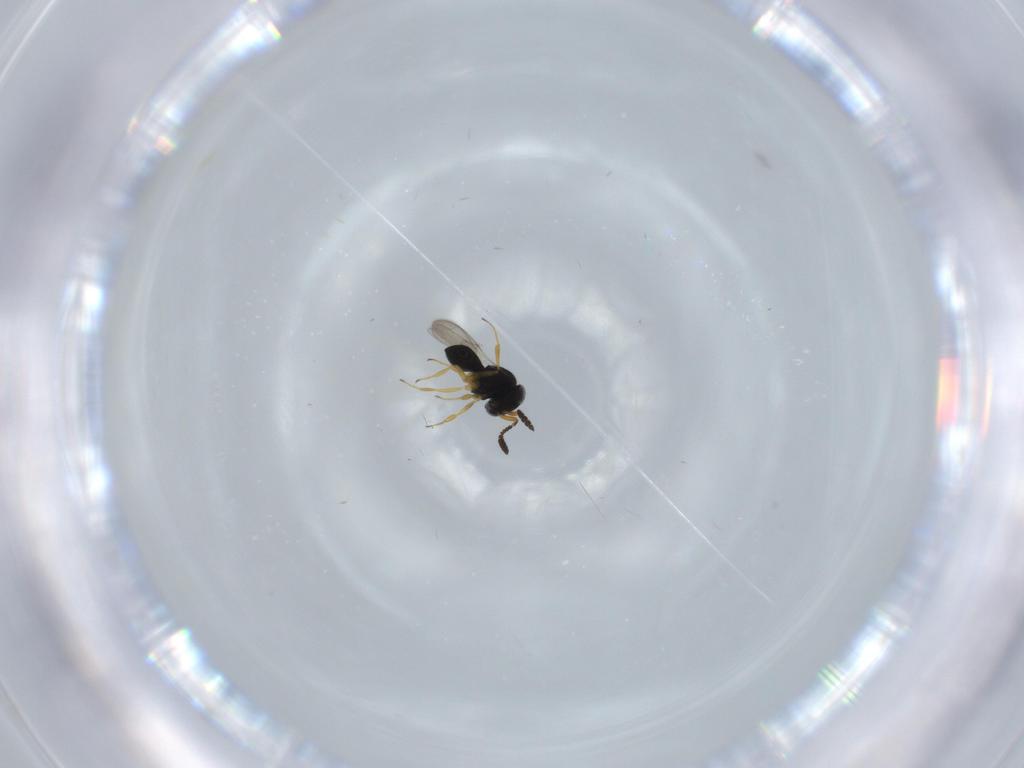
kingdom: Animalia
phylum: Arthropoda
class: Insecta
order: Hymenoptera
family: Scelionidae
